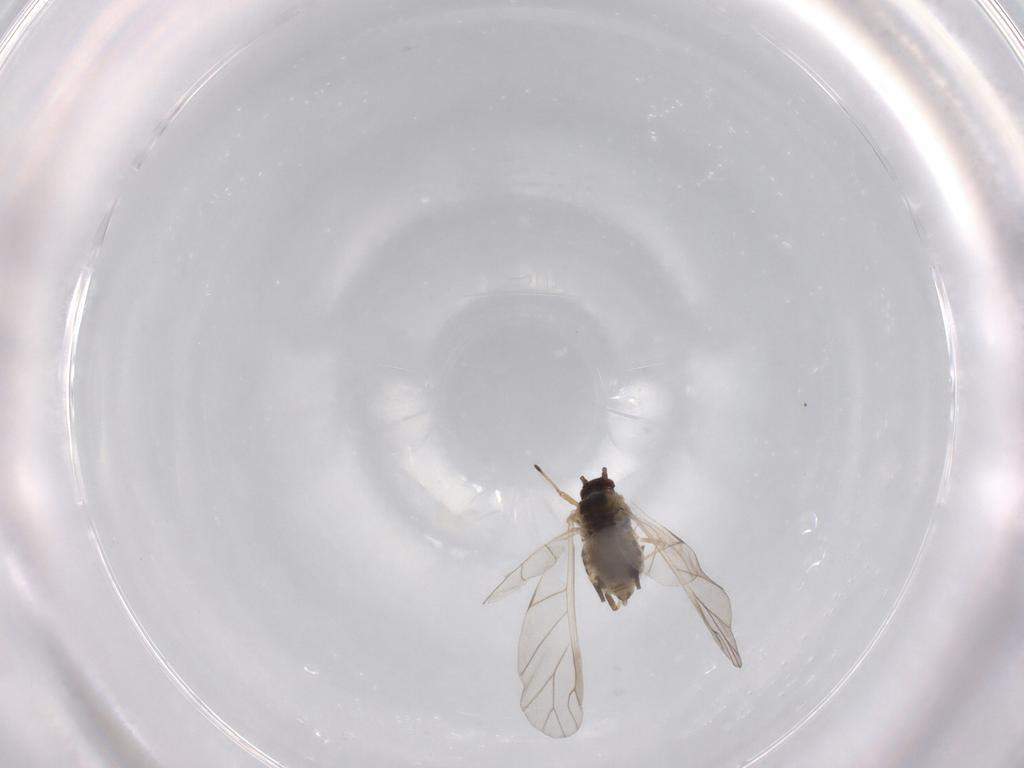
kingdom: Animalia
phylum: Arthropoda
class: Insecta
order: Hemiptera
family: Aphididae
